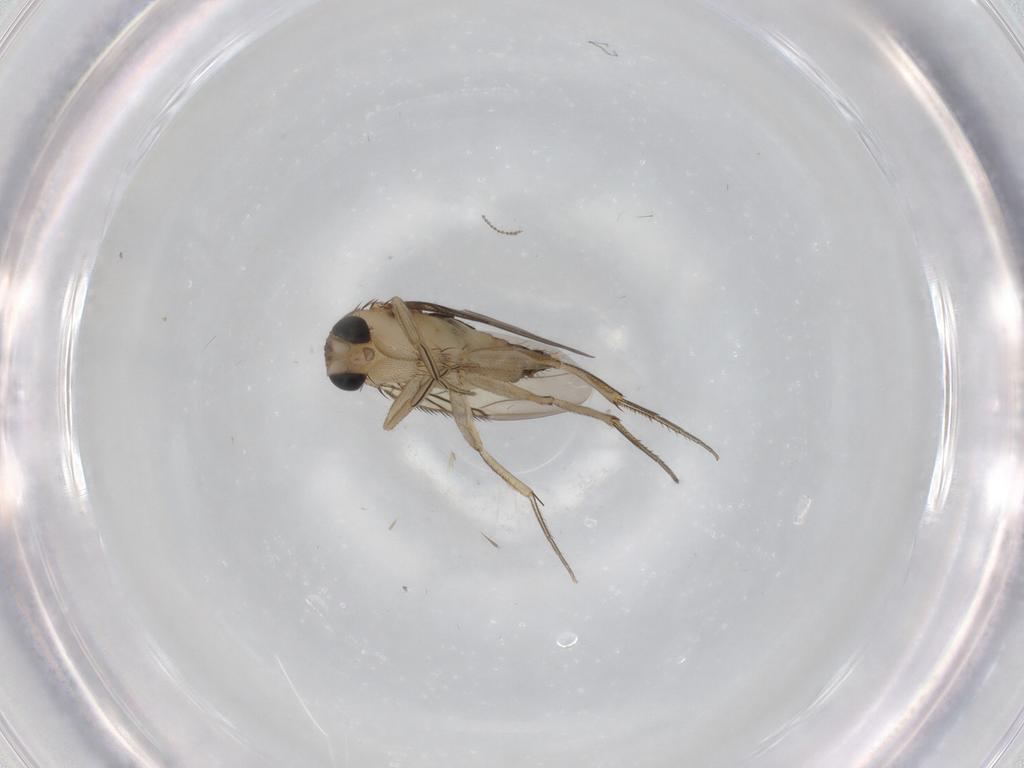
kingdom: Animalia
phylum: Arthropoda
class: Insecta
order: Diptera
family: Phoridae
